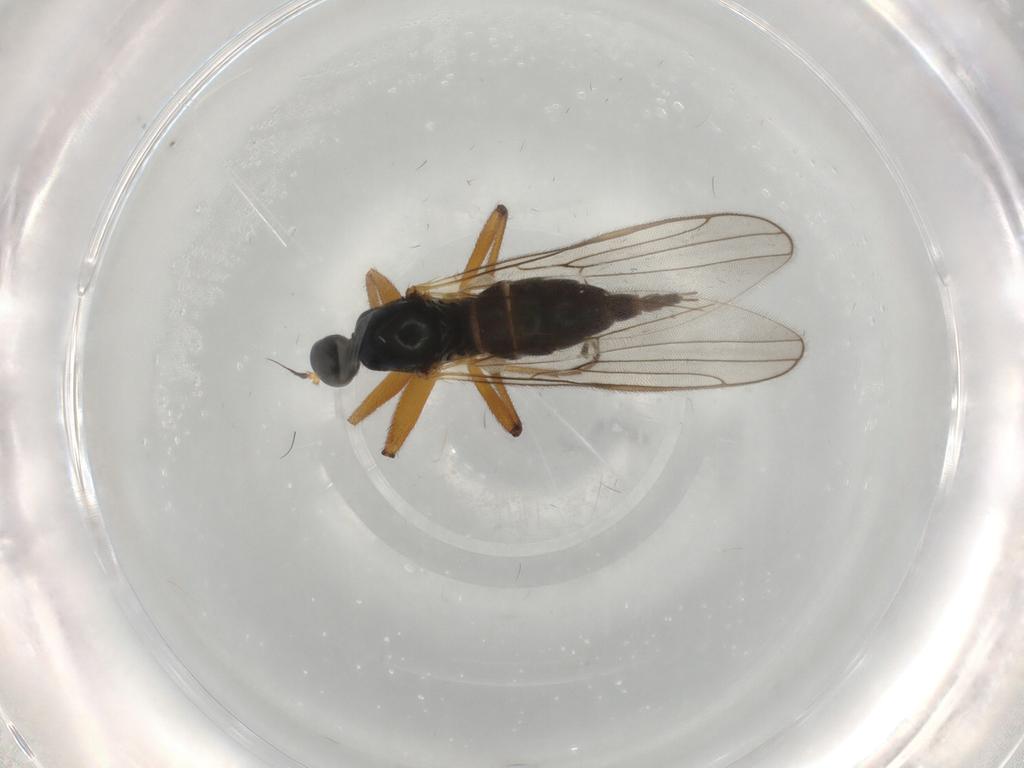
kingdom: Animalia
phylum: Arthropoda
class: Insecta
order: Diptera
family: Hybotidae
